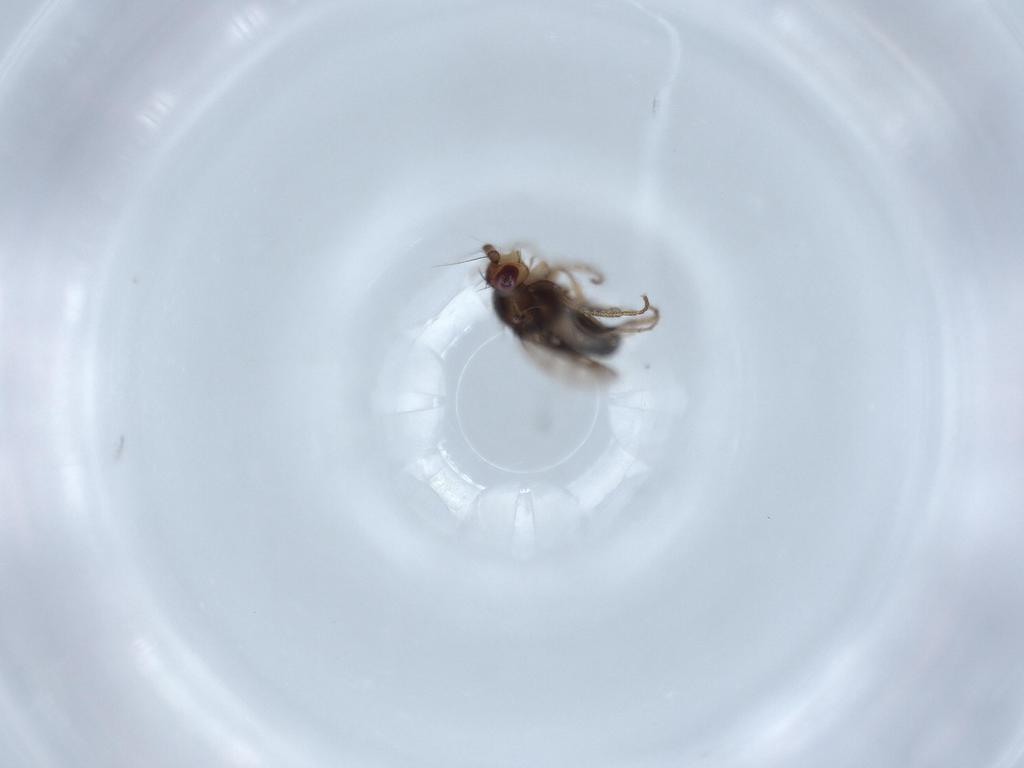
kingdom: Animalia
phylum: Arthropoda
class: Insecta
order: Diptera
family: Sphaeroceridae
